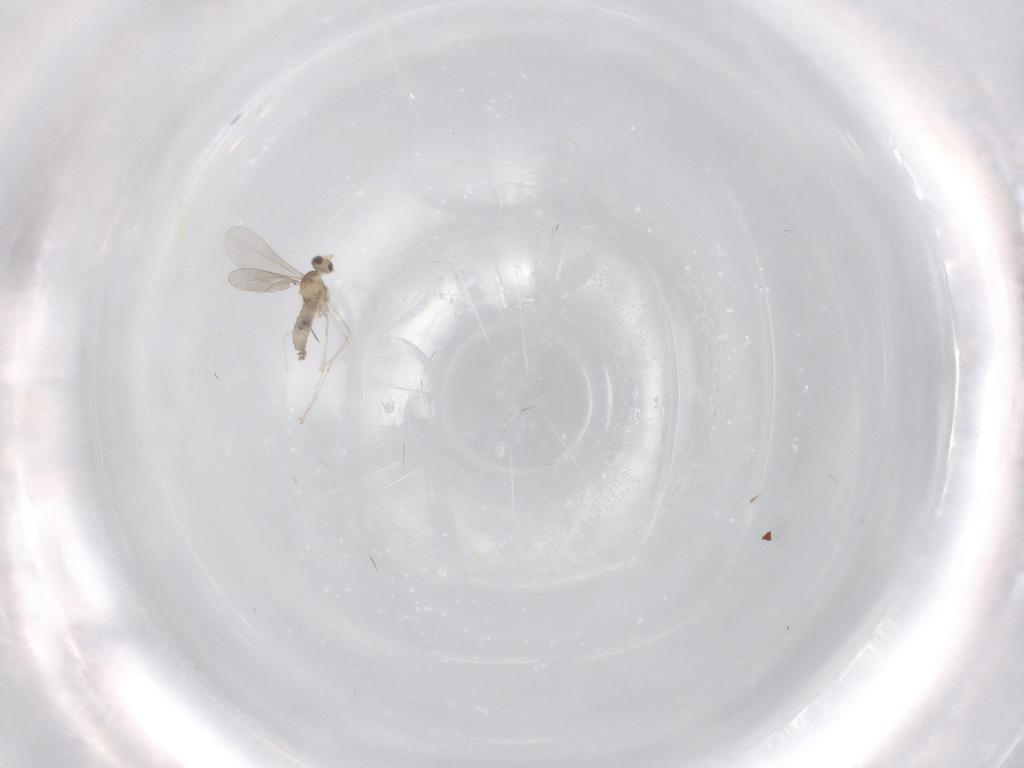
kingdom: Animalia
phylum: Arthropoda
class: Insecta
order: Diptera
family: Cecidomyiidae
